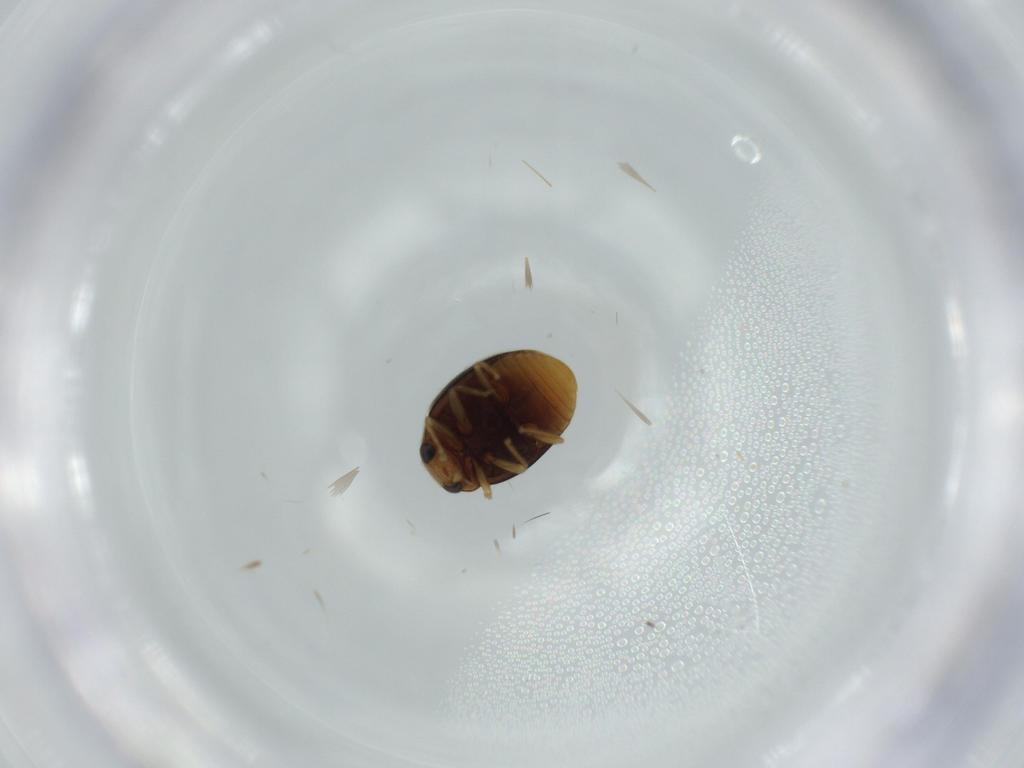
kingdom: Animalia
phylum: Arthropoda
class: Insecta
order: Coleoptera
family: Coccinellidae
